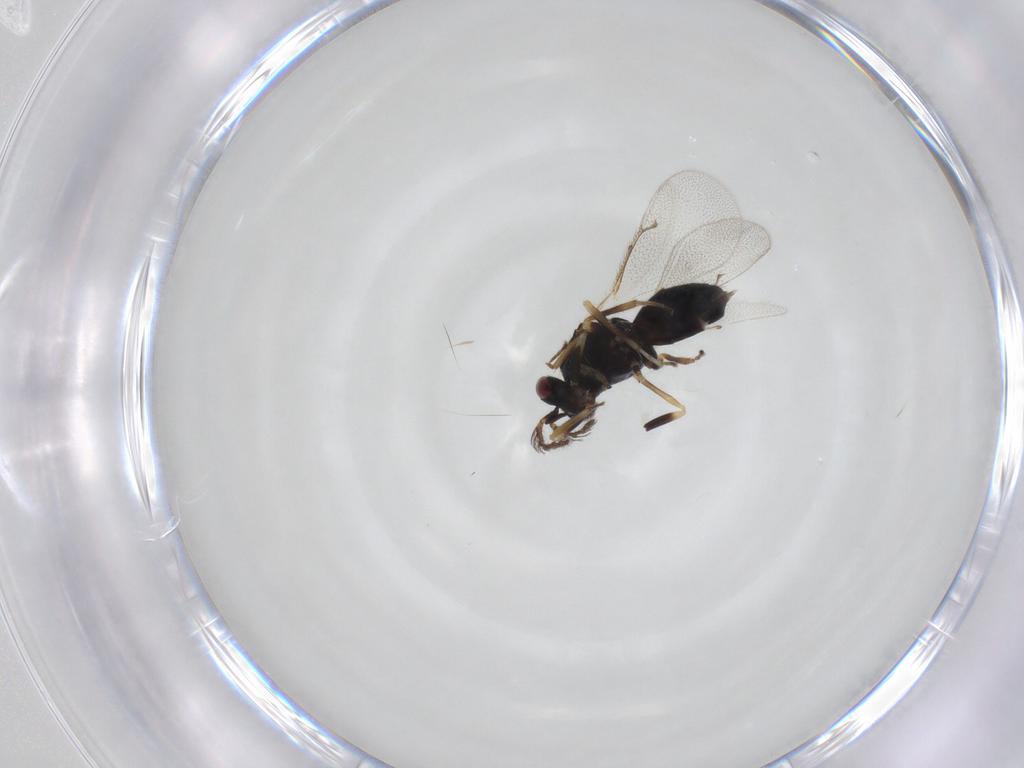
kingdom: Animalia
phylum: Arthropoda
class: Insecta
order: Hymenoptera
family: Eulophidae
